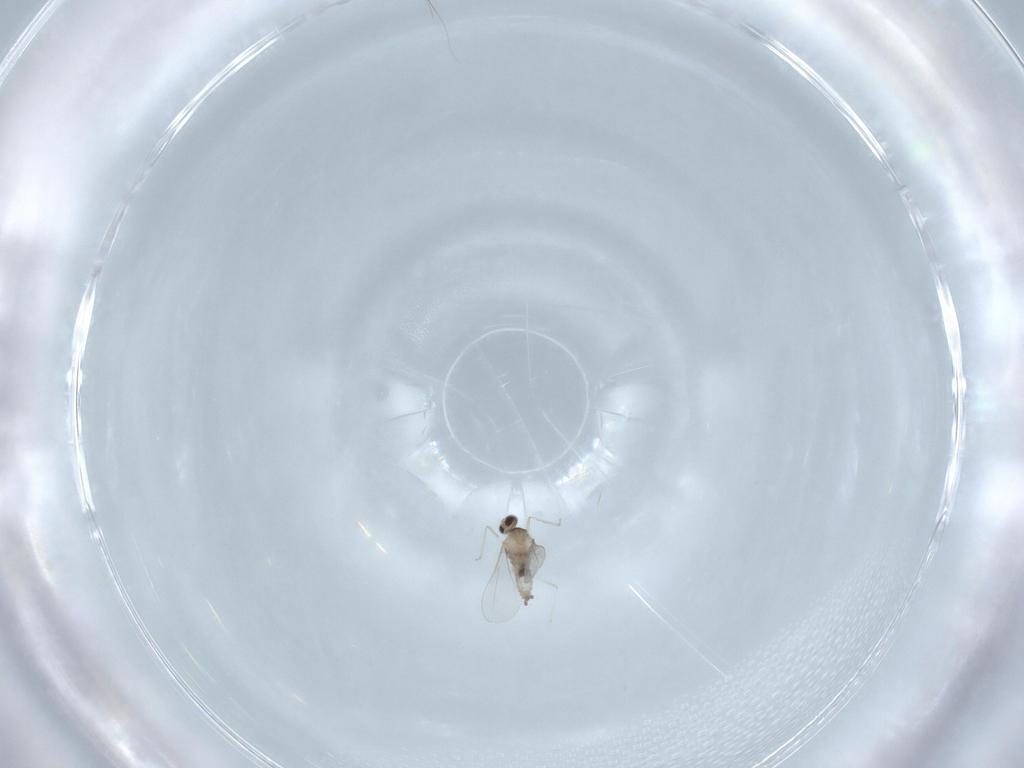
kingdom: Animalia
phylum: Arthropoda
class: Insecta
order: Diptera
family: Cecidomyiidae
